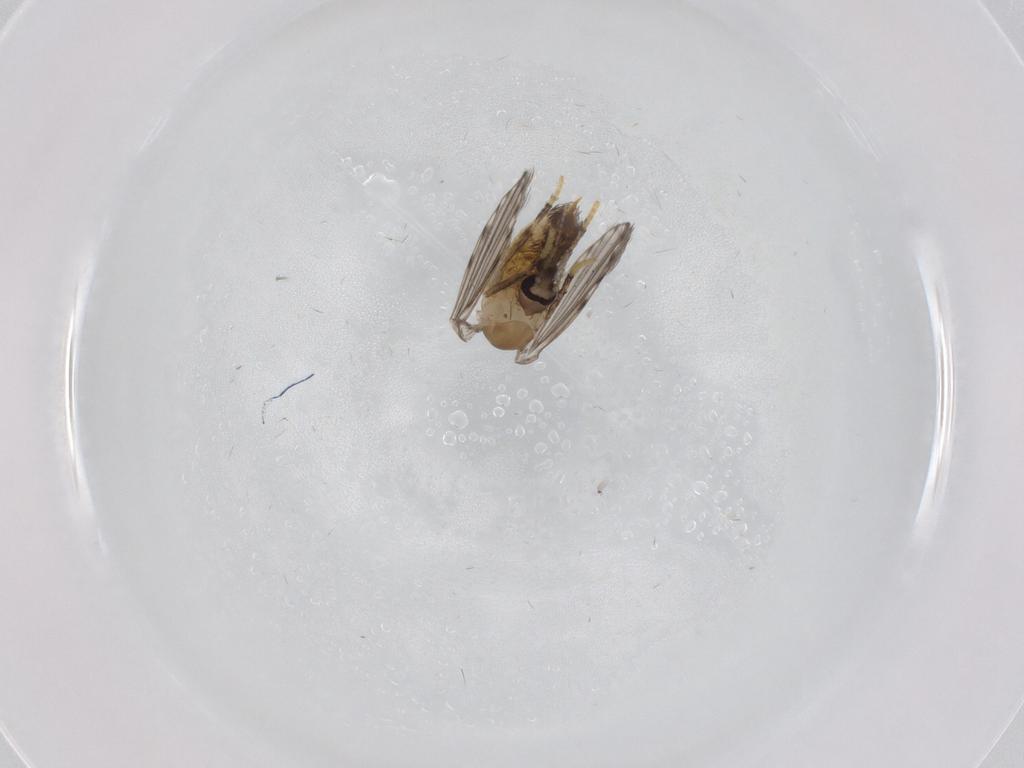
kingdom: Animalia
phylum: Arthropoda
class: Insecta
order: Diptera
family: Psychodidae
